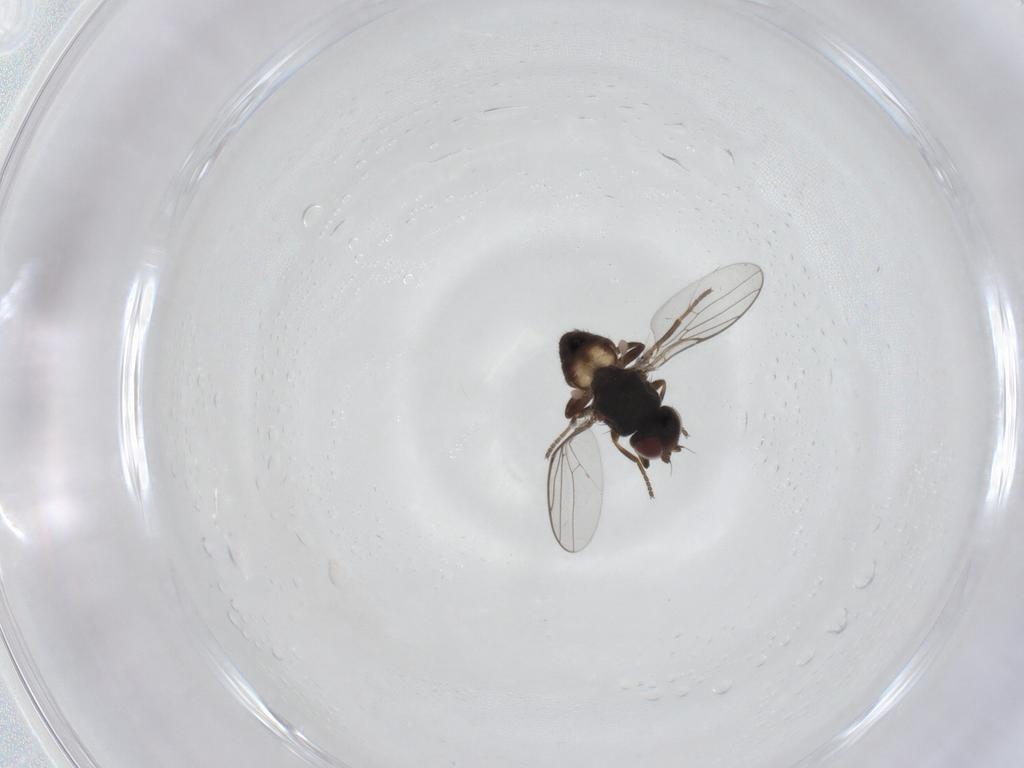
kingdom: Animalia
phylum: Arthropoda
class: Insecta
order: Diptera
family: Chloropidae
